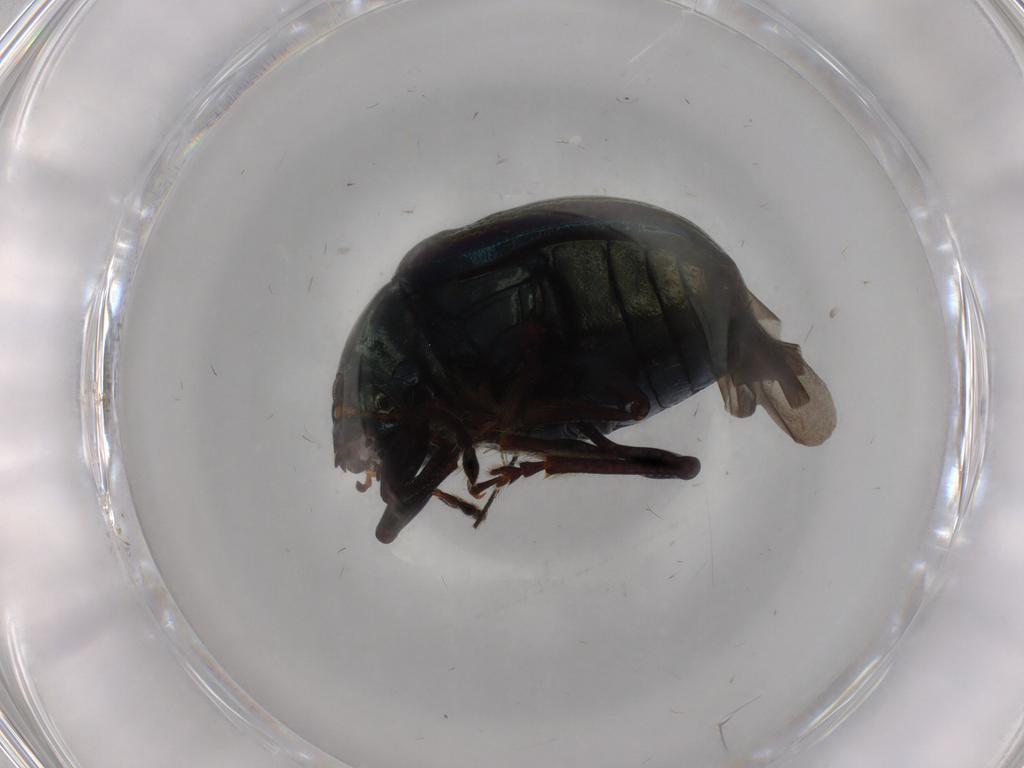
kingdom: Animalia
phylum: Arthropoda
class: Insecta
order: Coleoptera
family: Chrysomelidae
